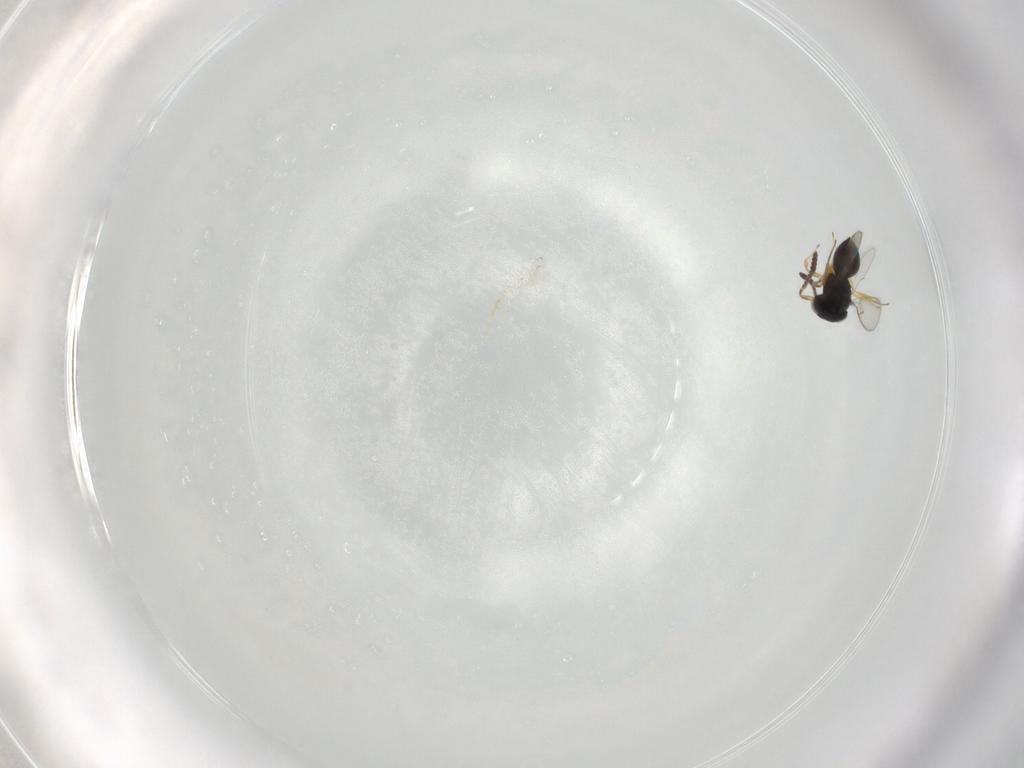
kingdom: Animalia
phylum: Arthropoda
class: Insecta
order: Hymenoptera
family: Scelionidae
